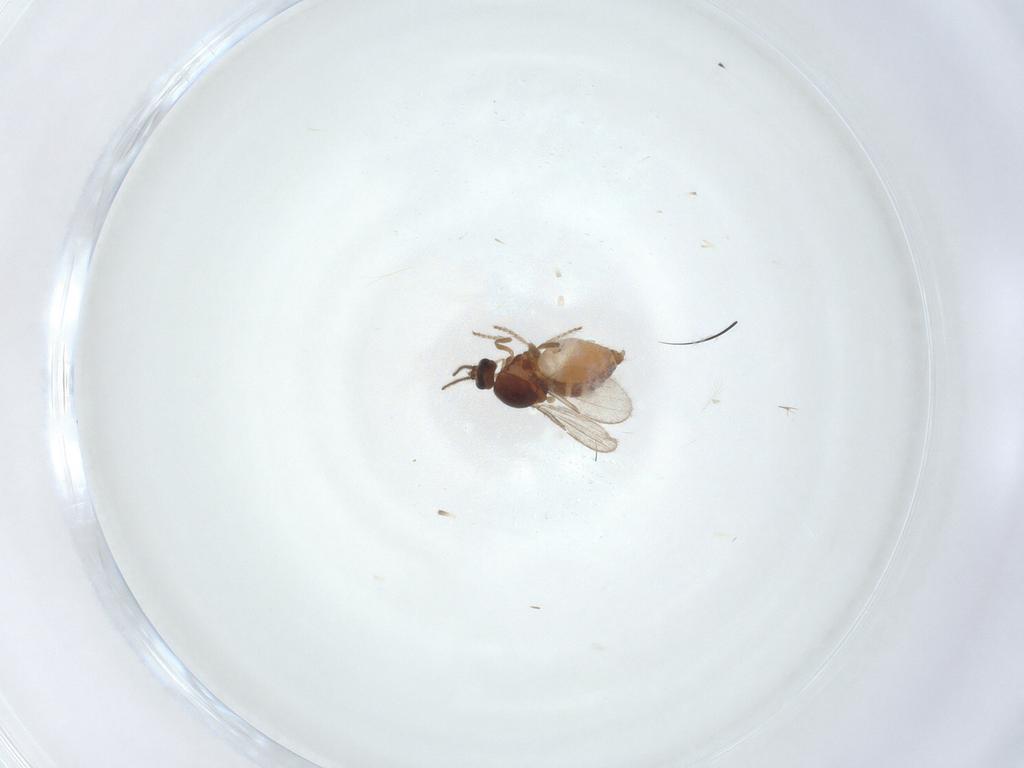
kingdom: Animalia
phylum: Arthropoda
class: Insecta
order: Diptera
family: Ceratopogonidae
